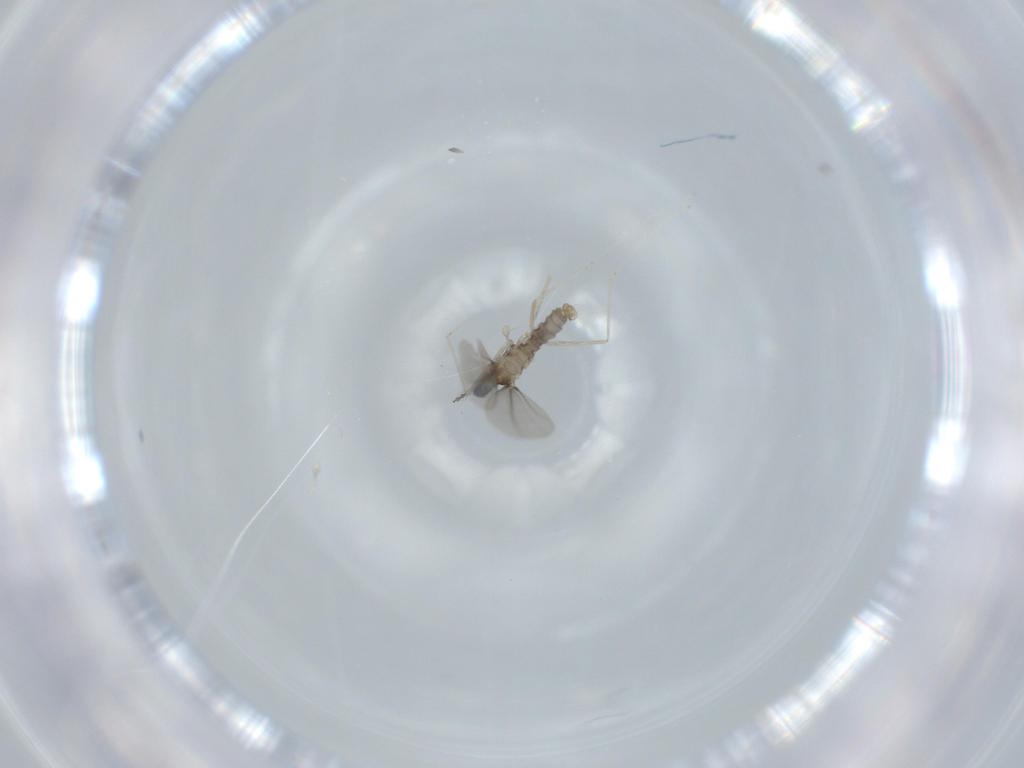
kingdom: Animalia
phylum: Arthropoda
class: Insecta
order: Diptera
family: Cecidomyiidae
